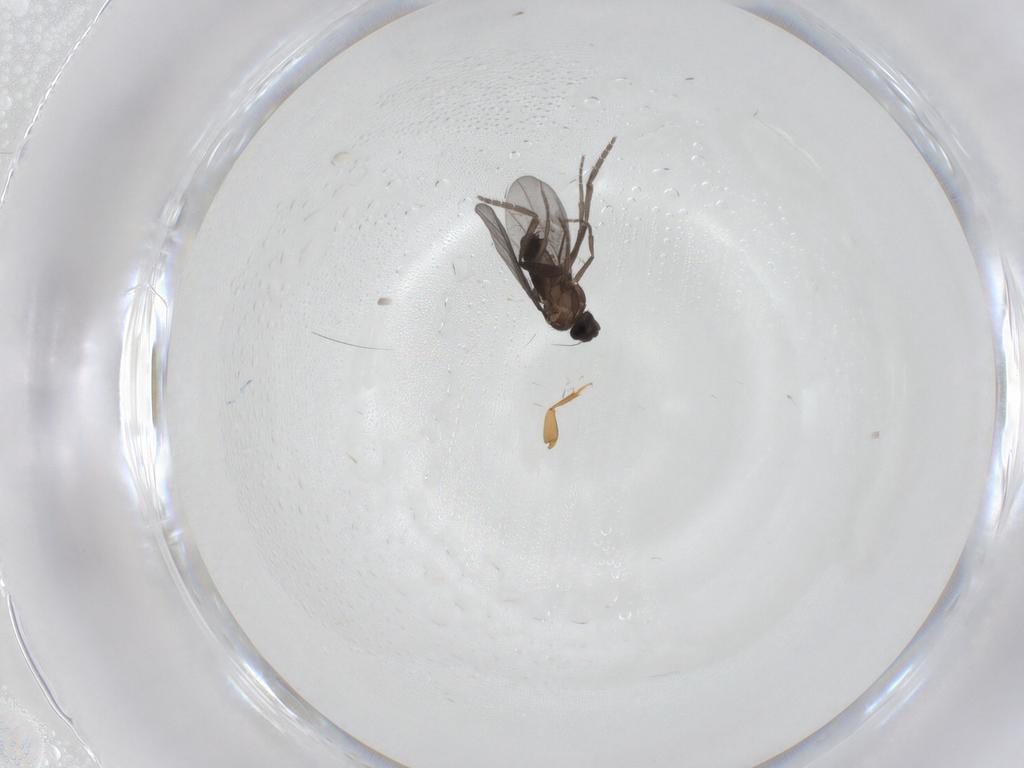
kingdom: Animalia
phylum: Arthropoda
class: Insecta
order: Diptera
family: Phoridae
